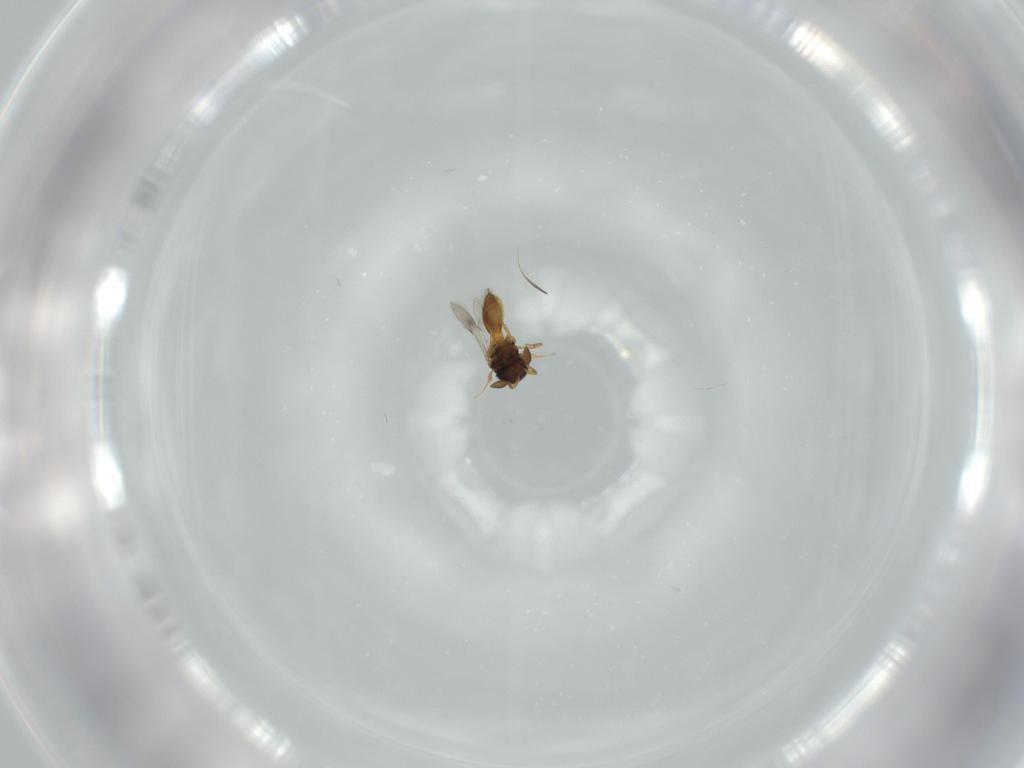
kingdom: Animalia
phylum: Arthropoda
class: Insecta
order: Hymenoptera
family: Scelionidae
